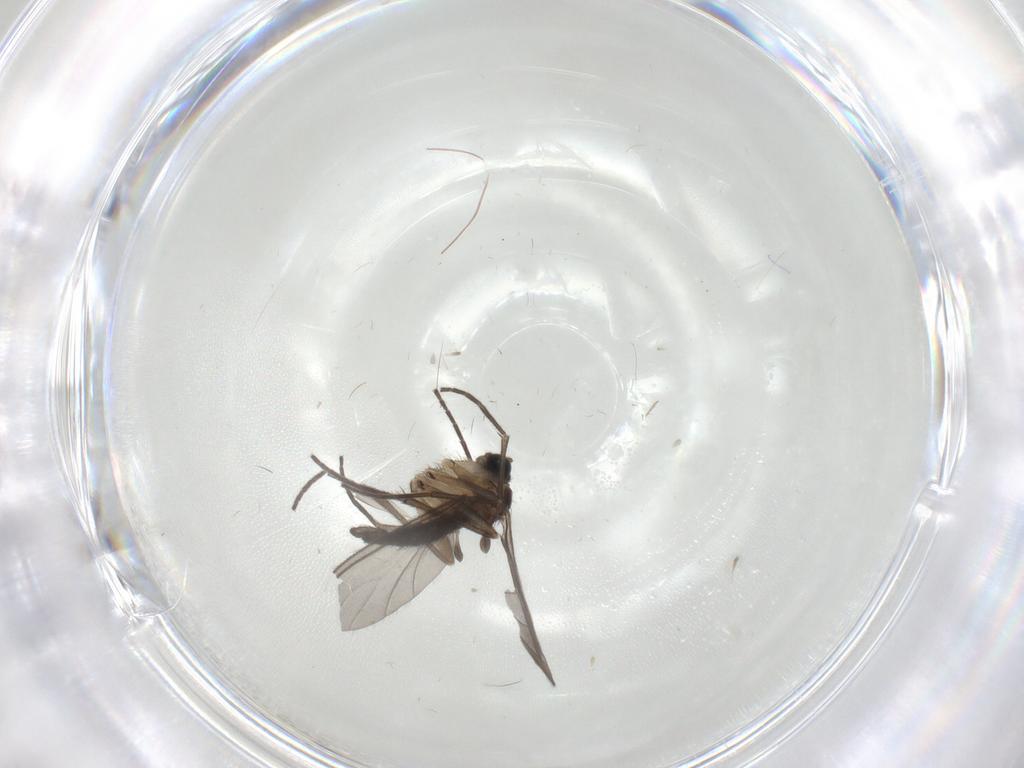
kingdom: Animalia
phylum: Arthropoda
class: Insecta
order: Diptera
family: Sciaridae
